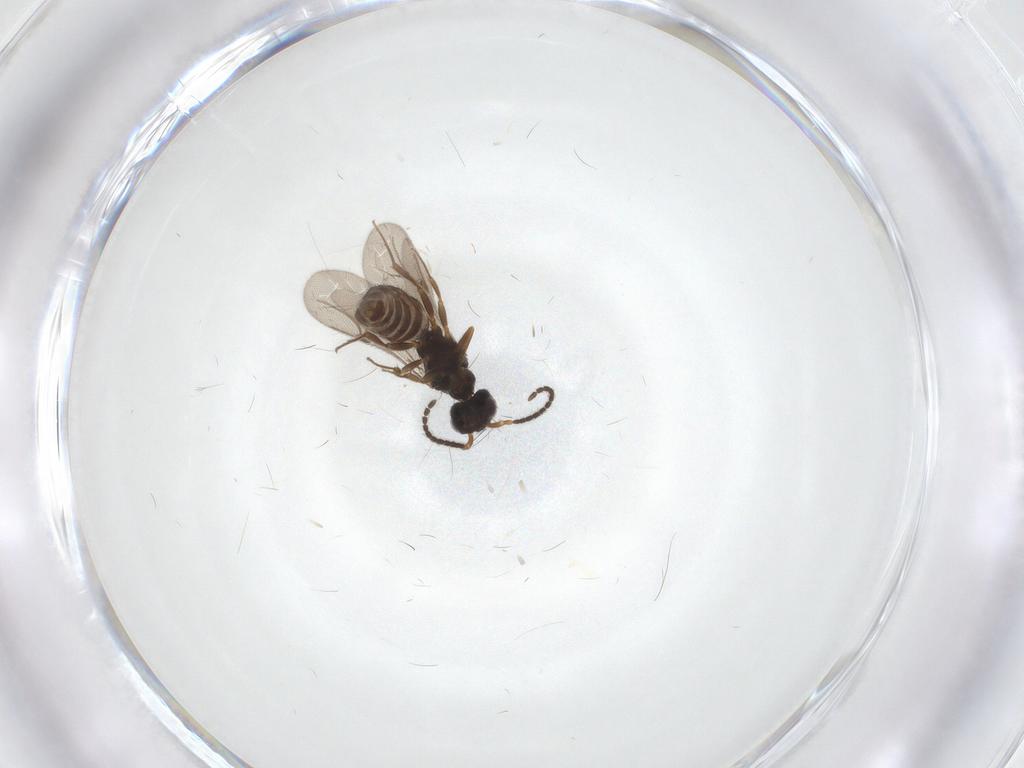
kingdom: Animalia
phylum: Arthropoda
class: Insecta
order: Hymenoptera
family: Bethylidae
